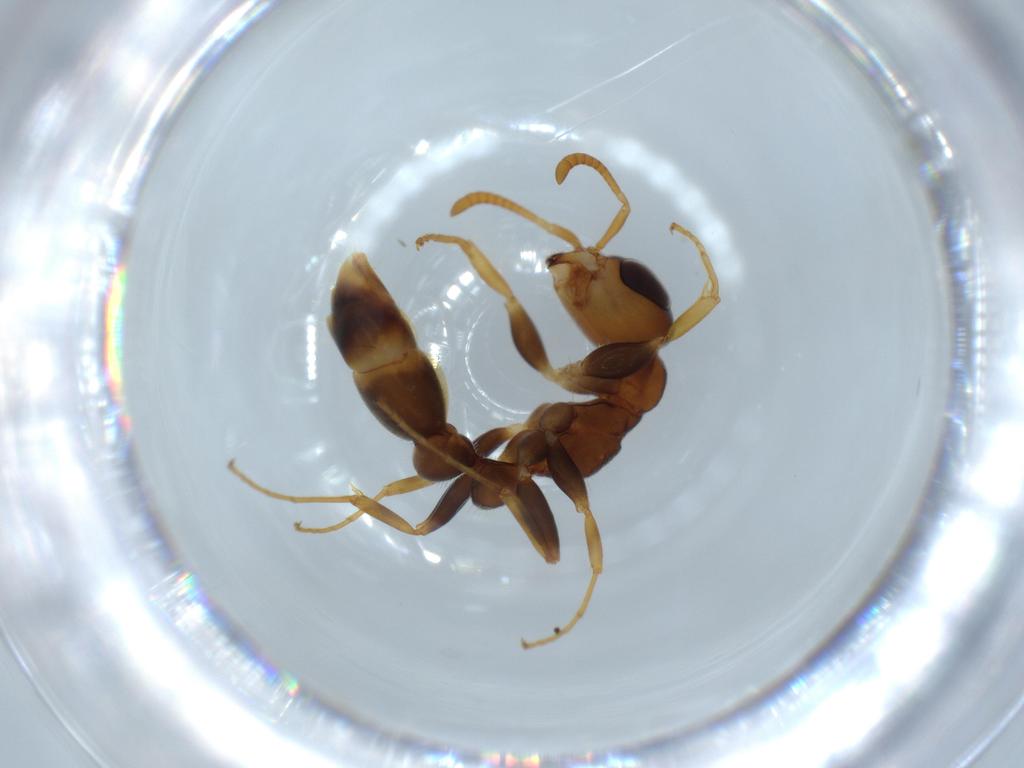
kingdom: Animalia
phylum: Arthropoda
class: Insecta
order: Hymenoptera
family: Formicidae
